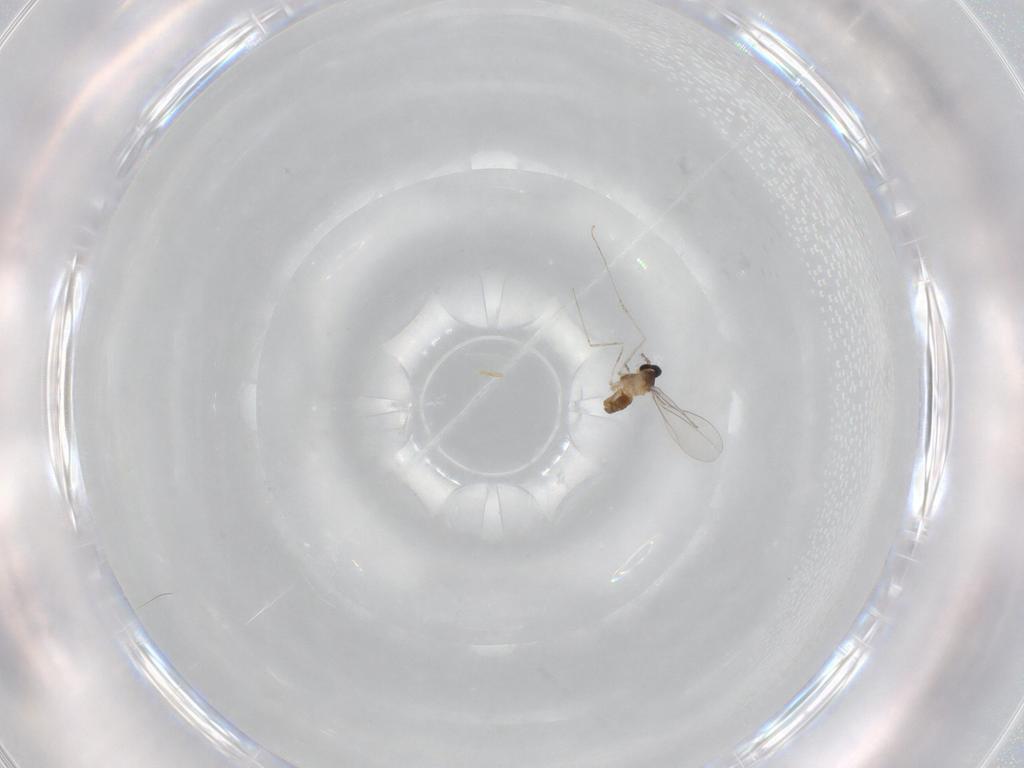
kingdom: Animalia
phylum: Arthropoda
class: Insecta
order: Diptera
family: Cecidomyiidae
